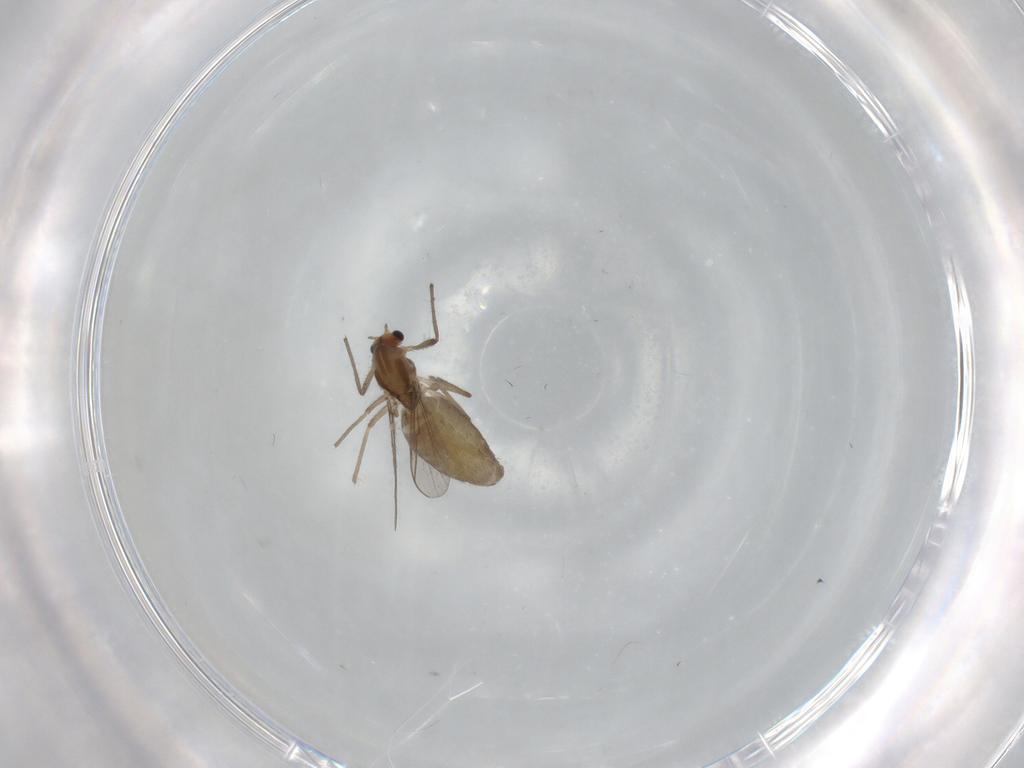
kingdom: Animalia
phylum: Arthropoda
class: Insecta
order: Diptera
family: Chironomidae
